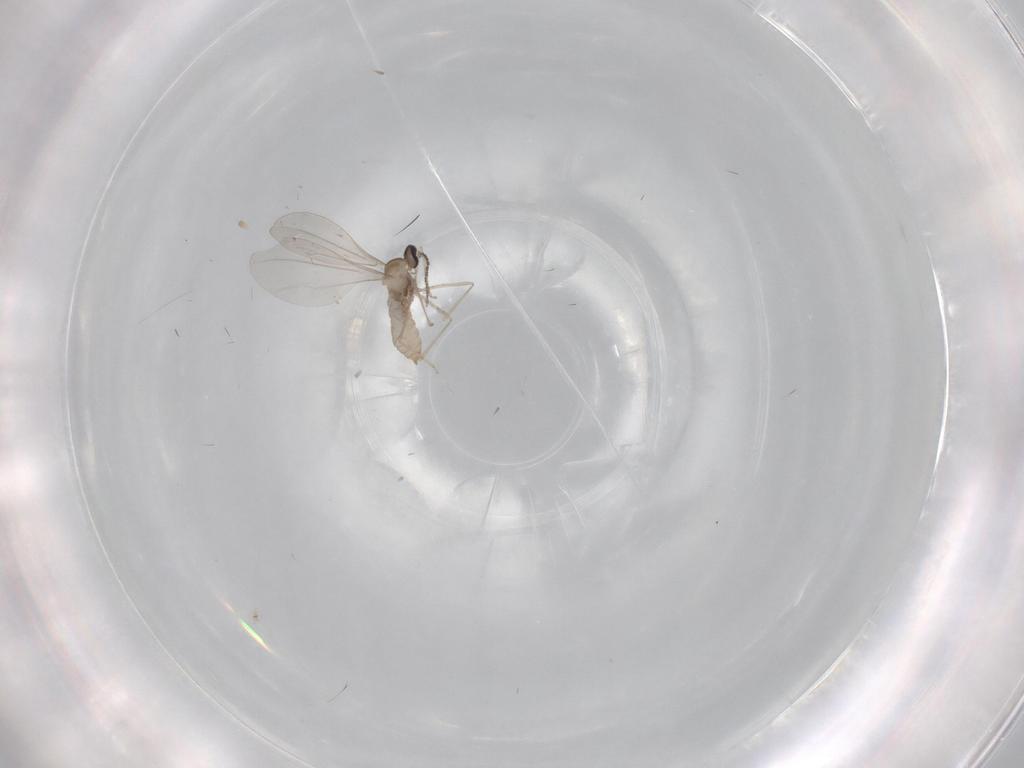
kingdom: Animalia
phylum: Arthropoda
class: Insecta
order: Diptera
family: Cecidomyiidae
